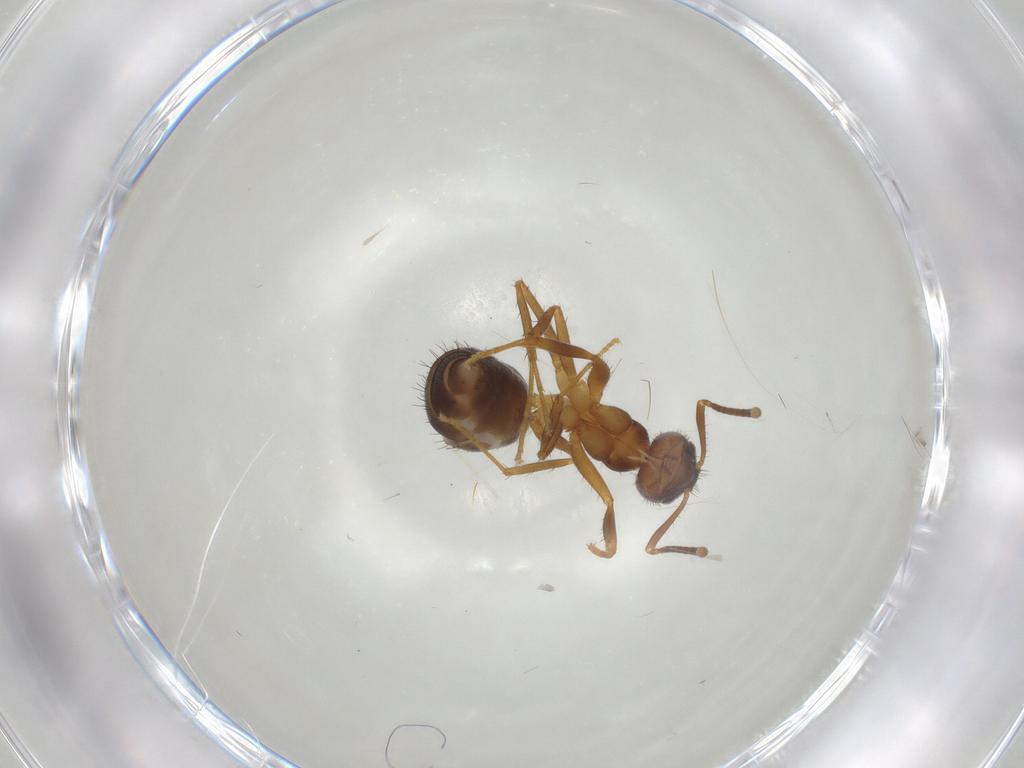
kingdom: Animalia
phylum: Arthropoda
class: Insecta
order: Hymenoptera
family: Formicidae
